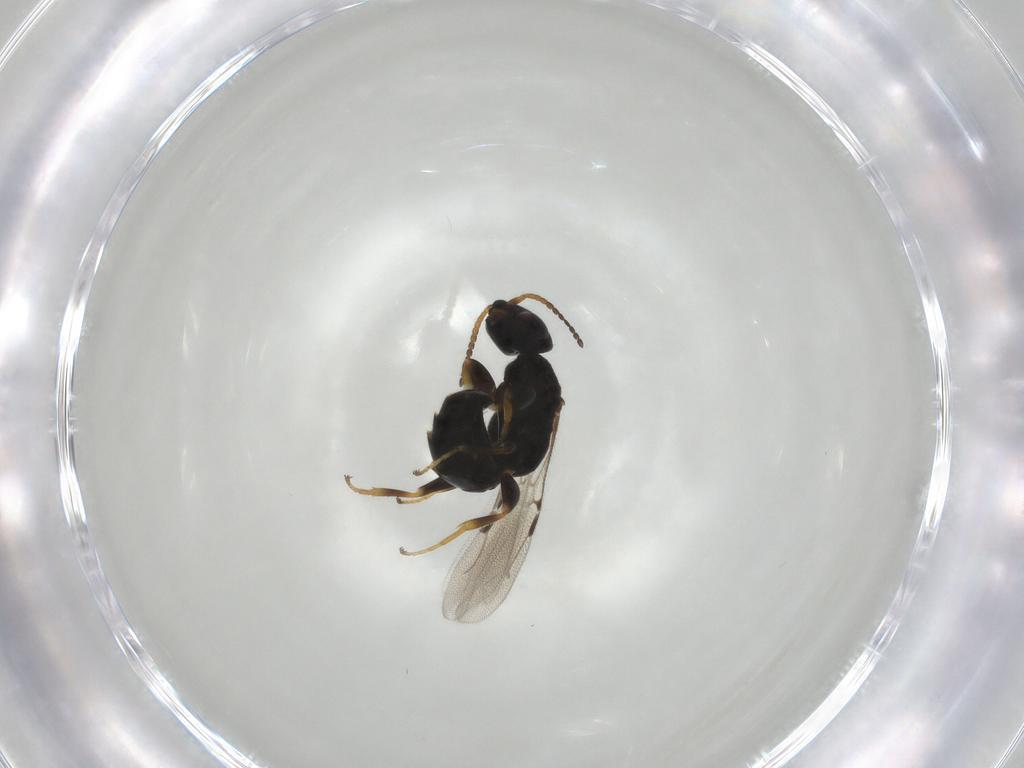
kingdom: Animalia
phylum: Arthropoda
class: Insecta
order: Hymenoptera
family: Bethylidae
